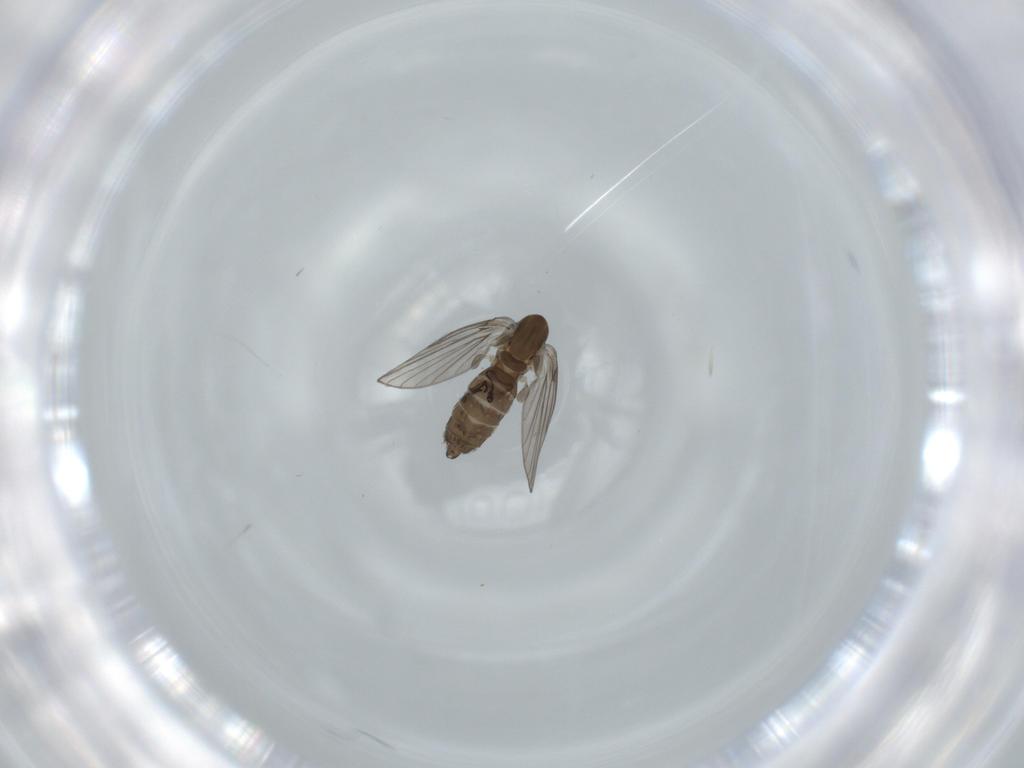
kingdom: Animalia
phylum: Arthropoda
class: Insecta
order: Diptera
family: Psychodidae
